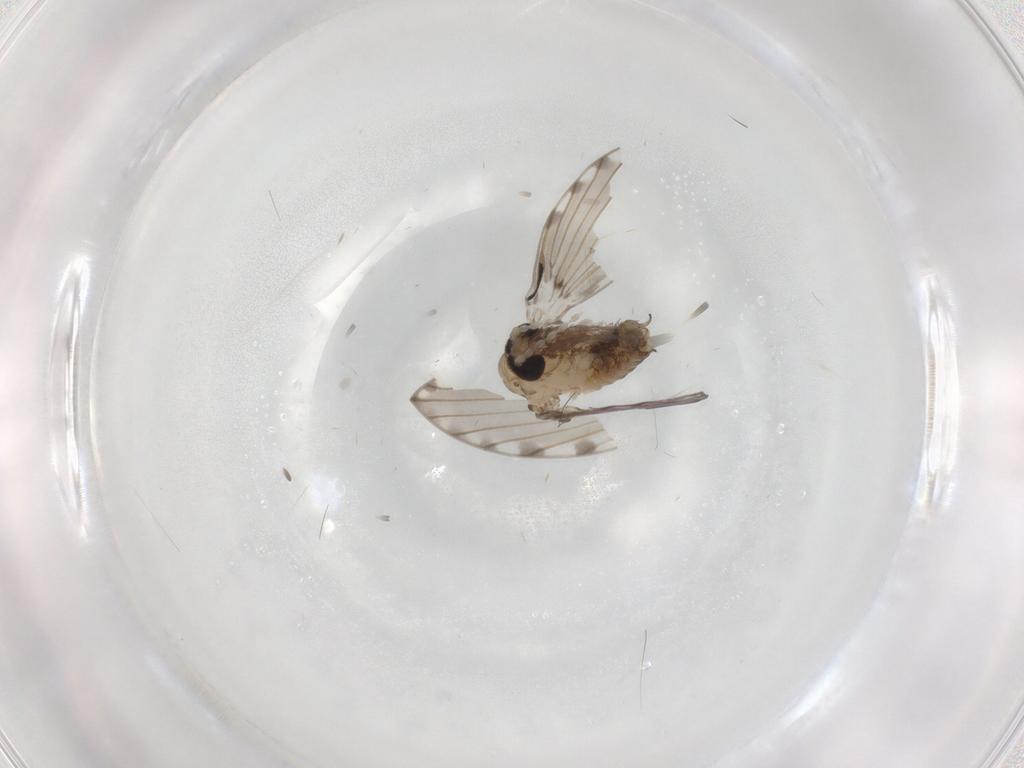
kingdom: Animalia
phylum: Arthropoda
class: Insecta
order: Diptera
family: Psychodidae
